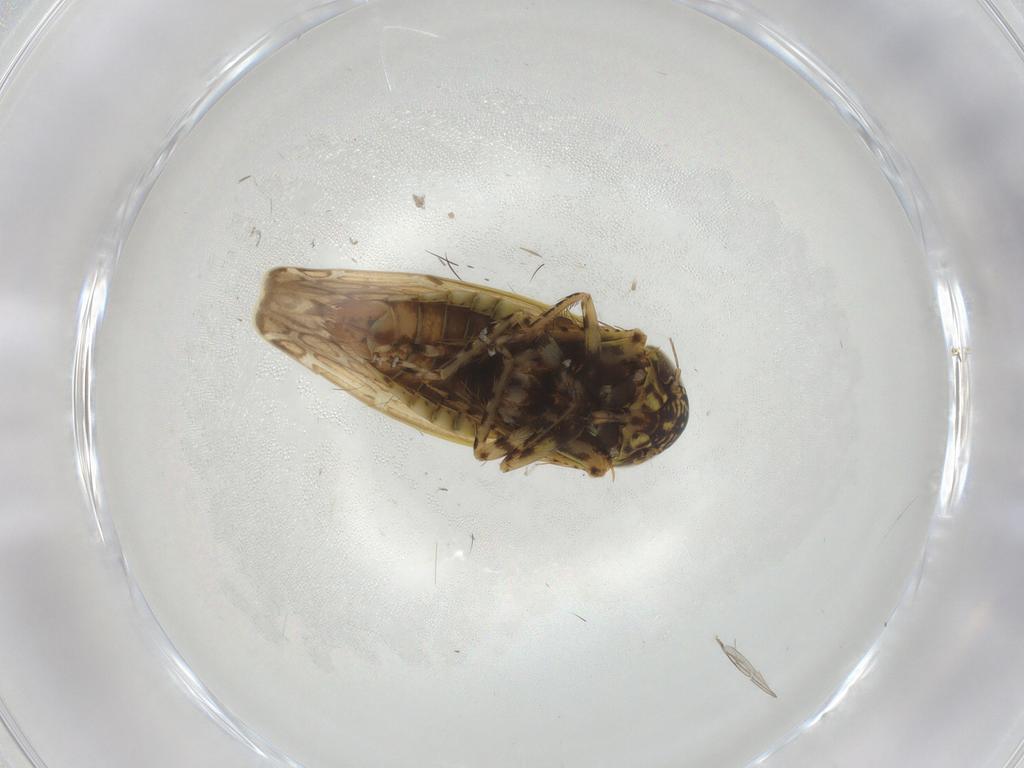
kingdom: Animalia
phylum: Arthropoda
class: Insecta
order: Hemiptera
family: Cicadellidae
